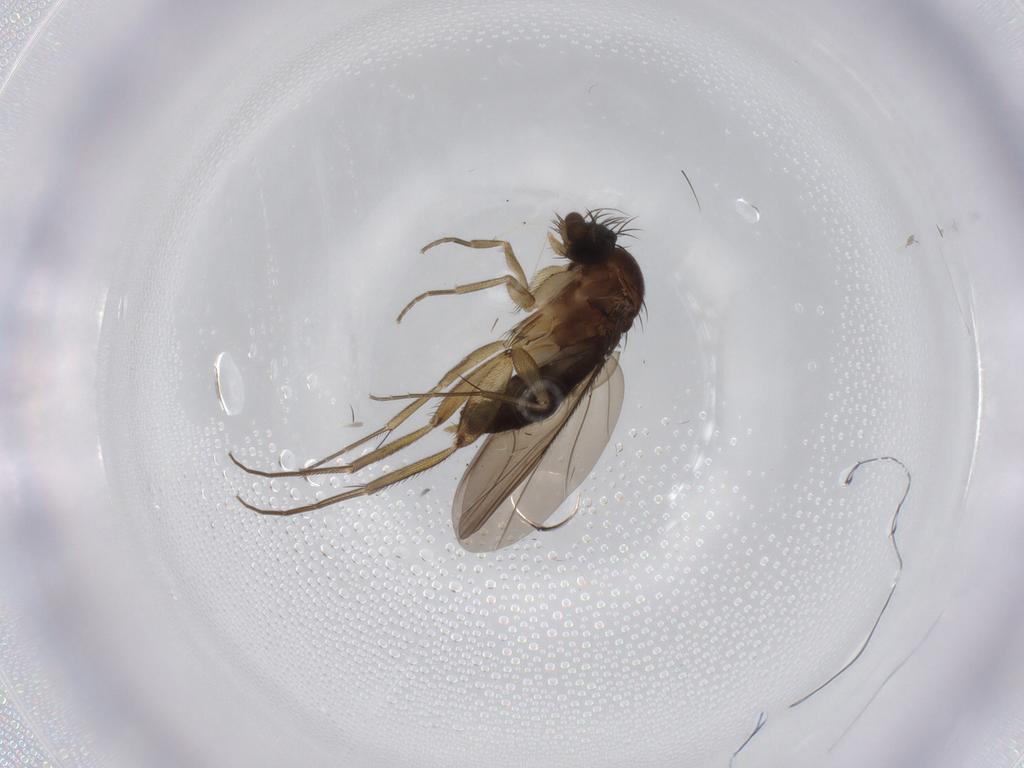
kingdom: Animalia
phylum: Arthropoda
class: Insecta
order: Diptera
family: Phoridae
